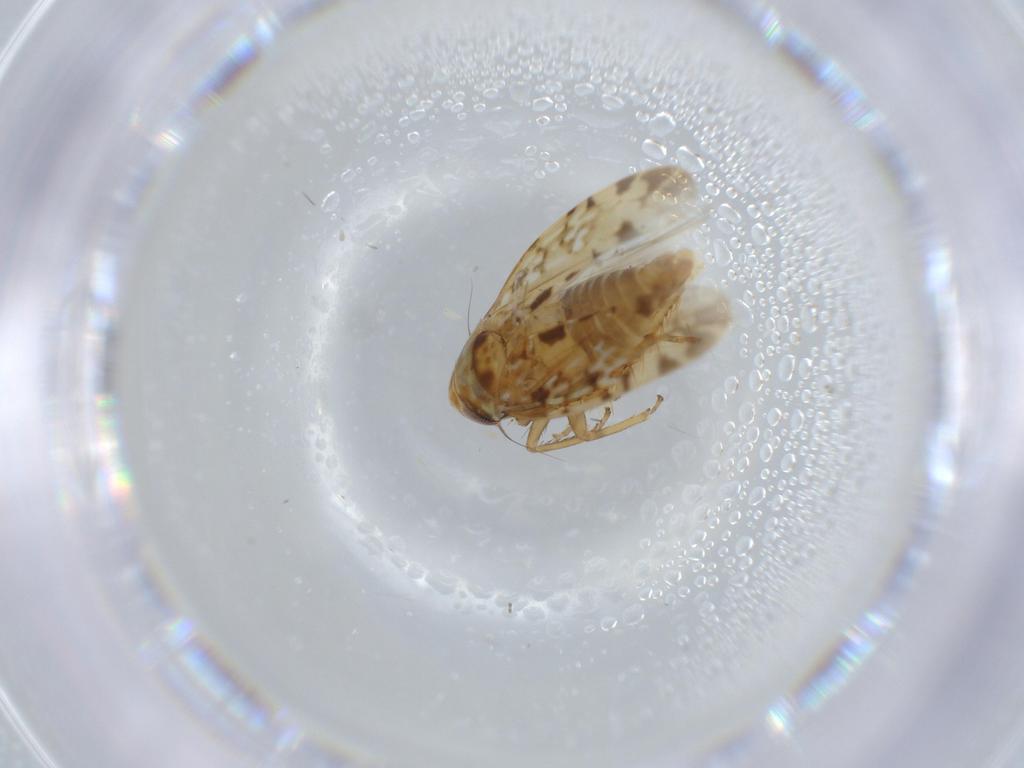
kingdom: Animalia
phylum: Arthropoda
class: Insecta
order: Hemiptera
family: Cicadellidae
